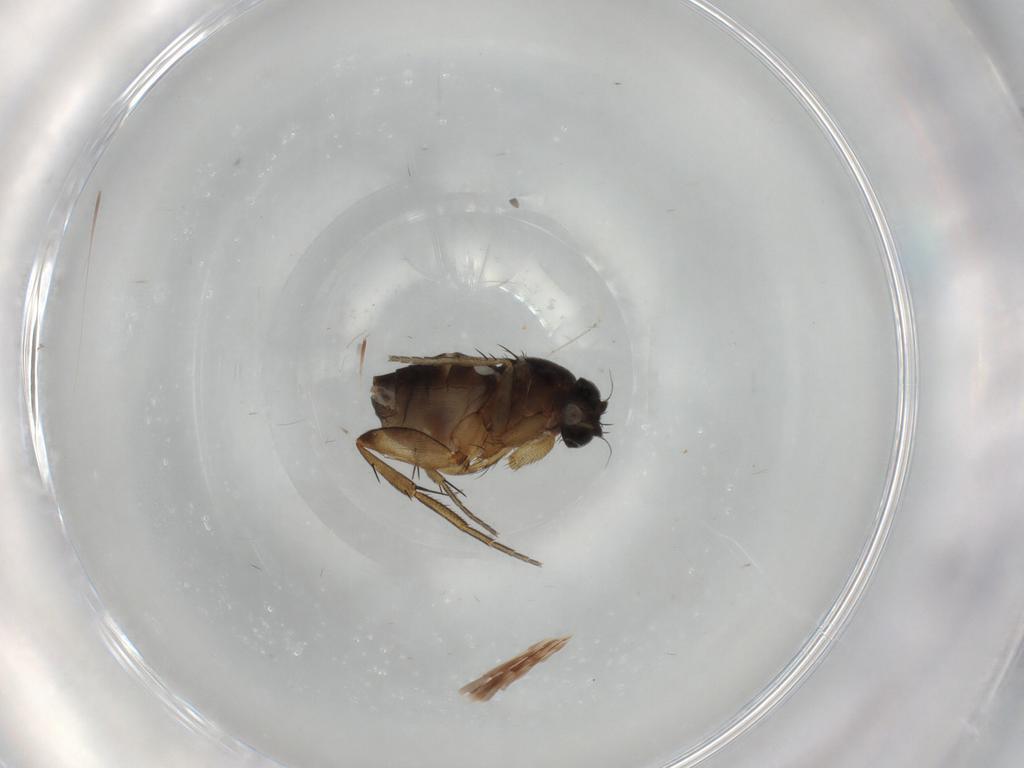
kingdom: Animalia
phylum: Arthropoda
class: Insecta
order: Diptera
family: Phoridae
